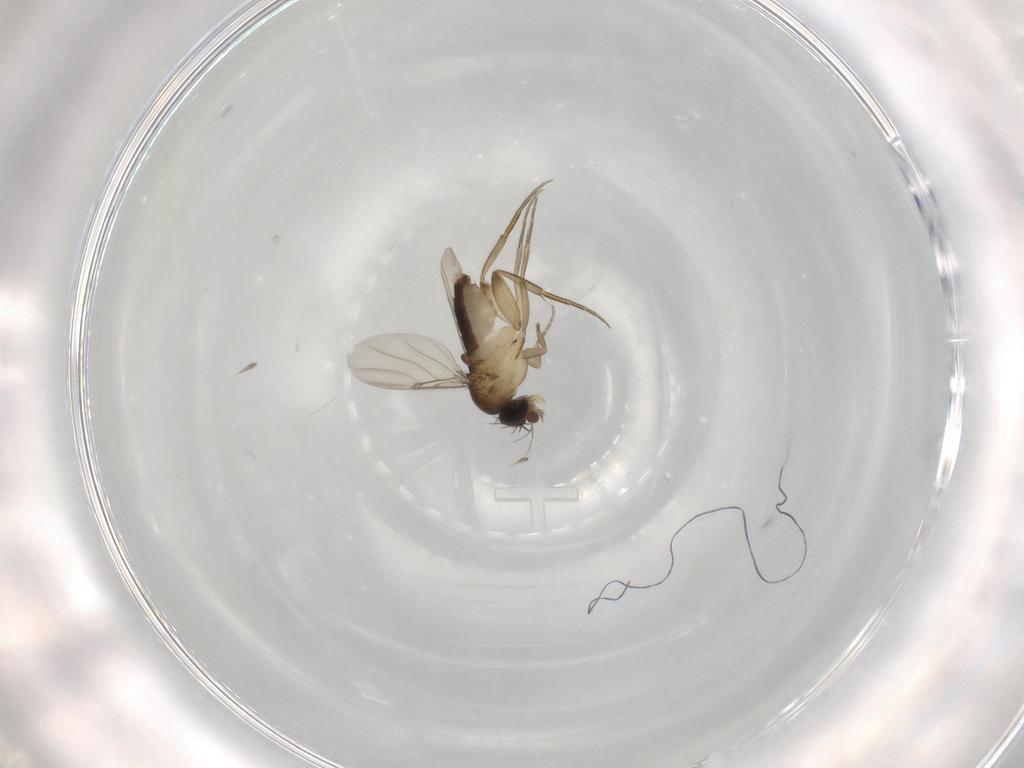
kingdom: Animalia
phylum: Arthropoda
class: Insecta
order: Diptera
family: Phoridae
